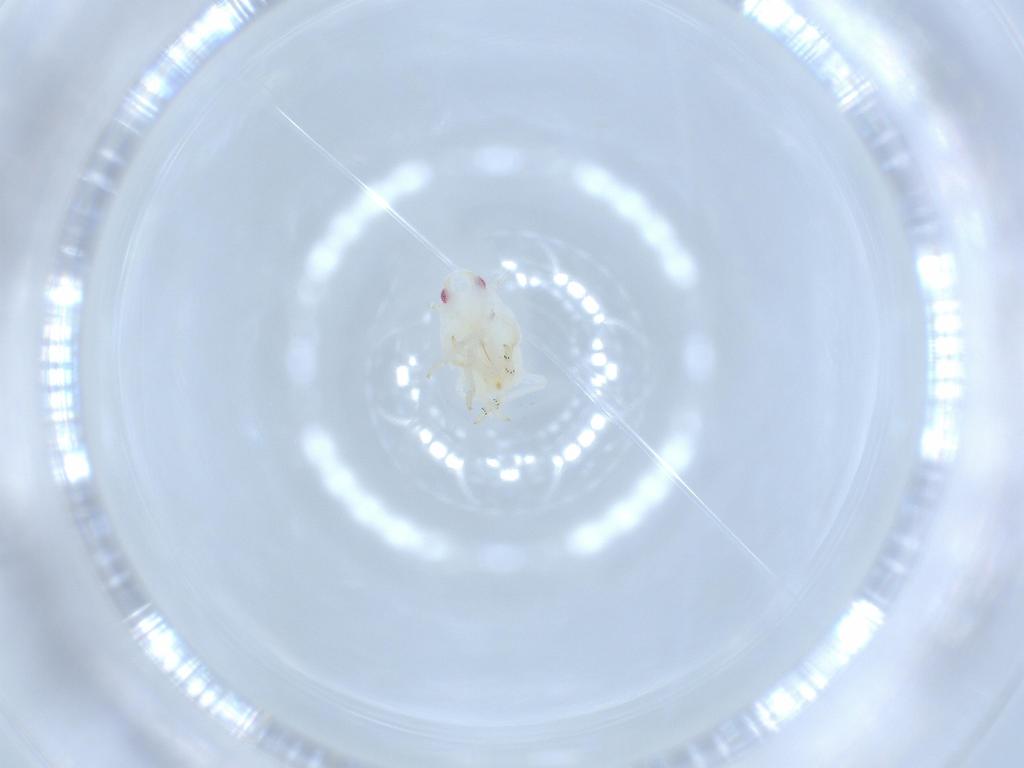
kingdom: Animalia
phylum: Arthropoda
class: Insecta
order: Hemiptera
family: Flatidae
